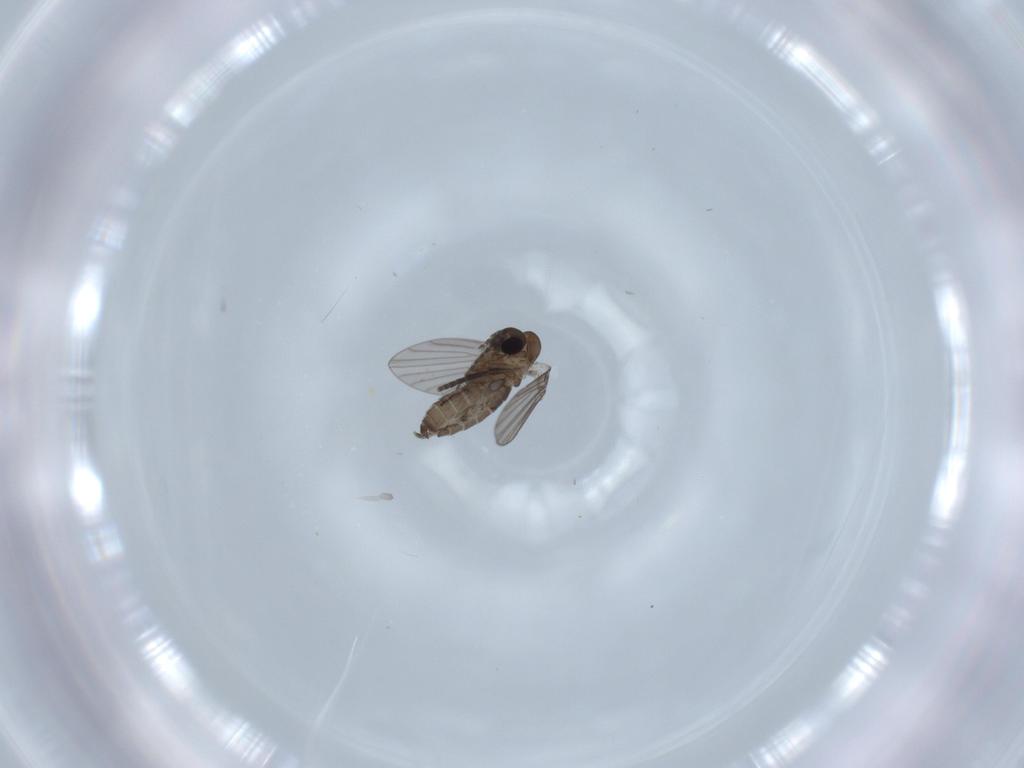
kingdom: Animalia
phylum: Arthropoda
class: Insecta
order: Diptera
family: Psychodidae
